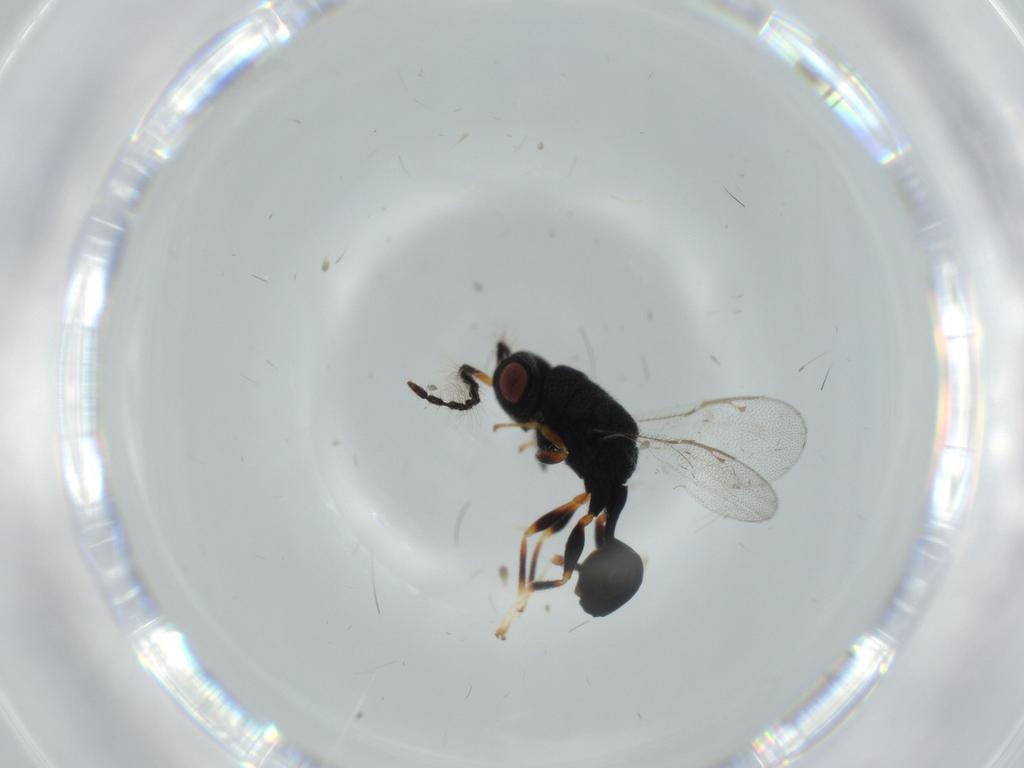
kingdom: Animalia
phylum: Arthropoda
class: Insecta
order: Hymenoptera
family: Eurytomidae
